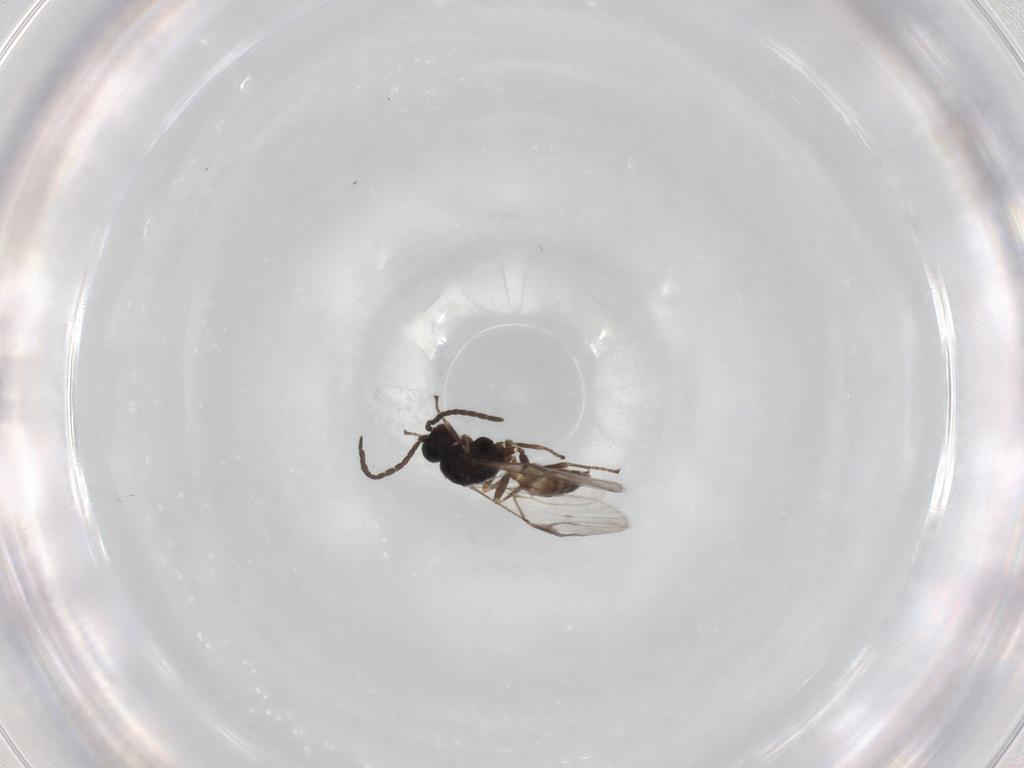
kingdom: Animalia
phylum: Arthropoda
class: Insecta
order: Hymenoptera
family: Braconidae
